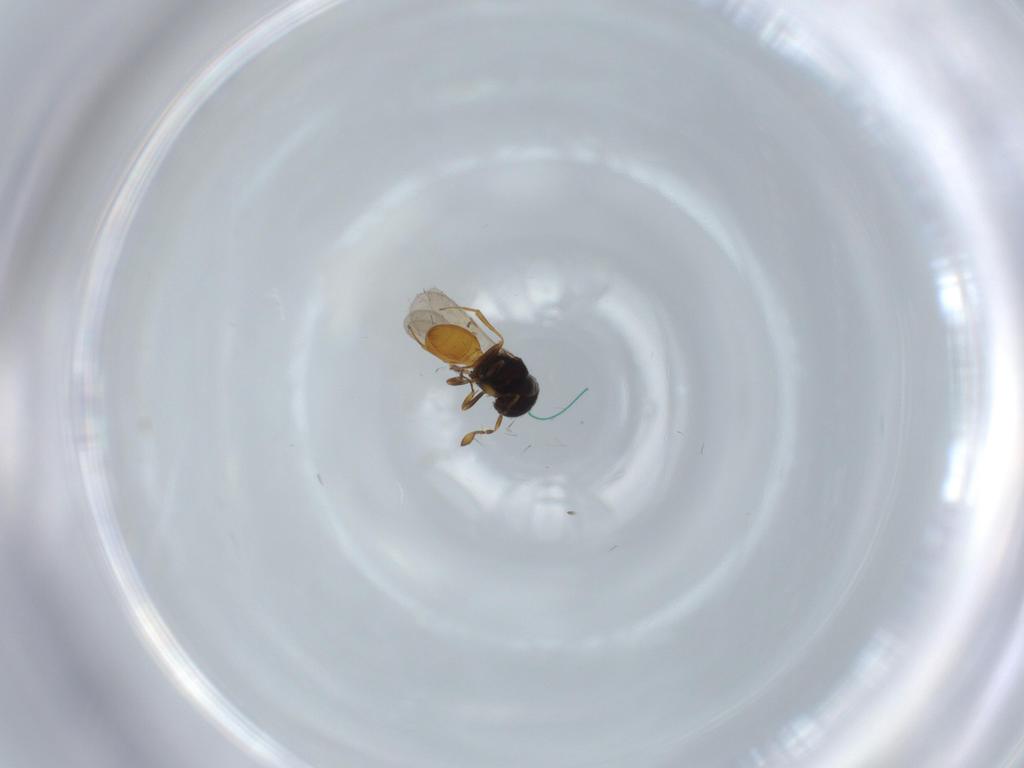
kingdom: Animalia
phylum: Arthropoda
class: Insecta
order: Hymenoptera
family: Scelionidae
